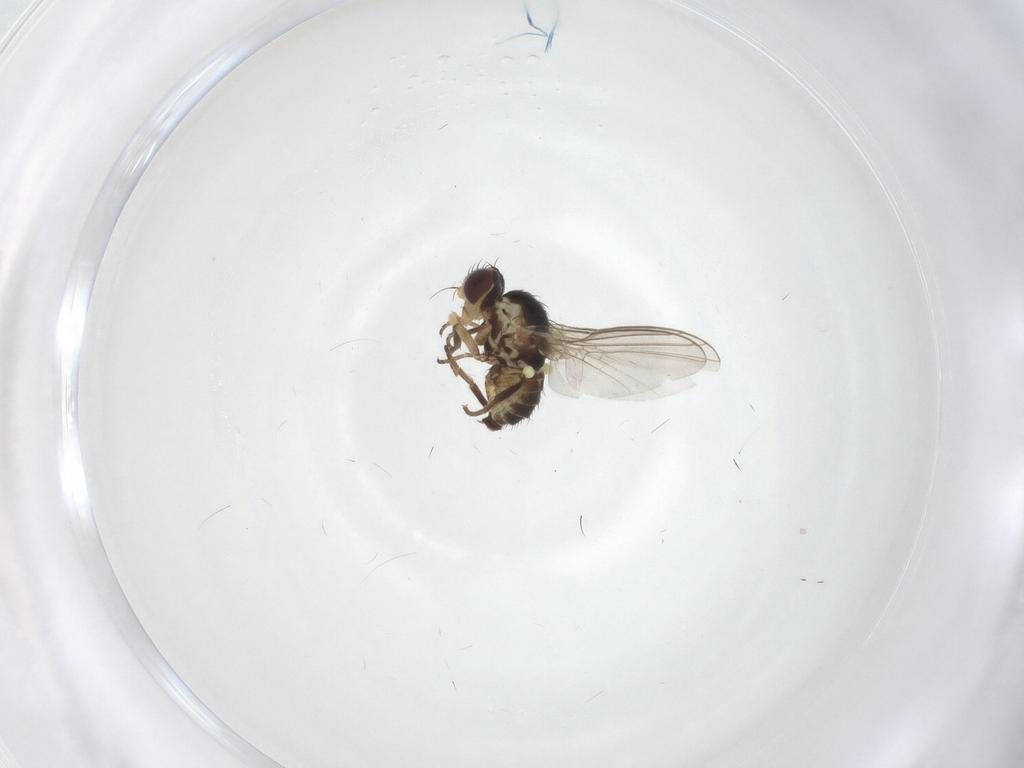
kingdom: Animalia
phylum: Arthropoda
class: Insecta
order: Diptera
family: Agromyzidae
